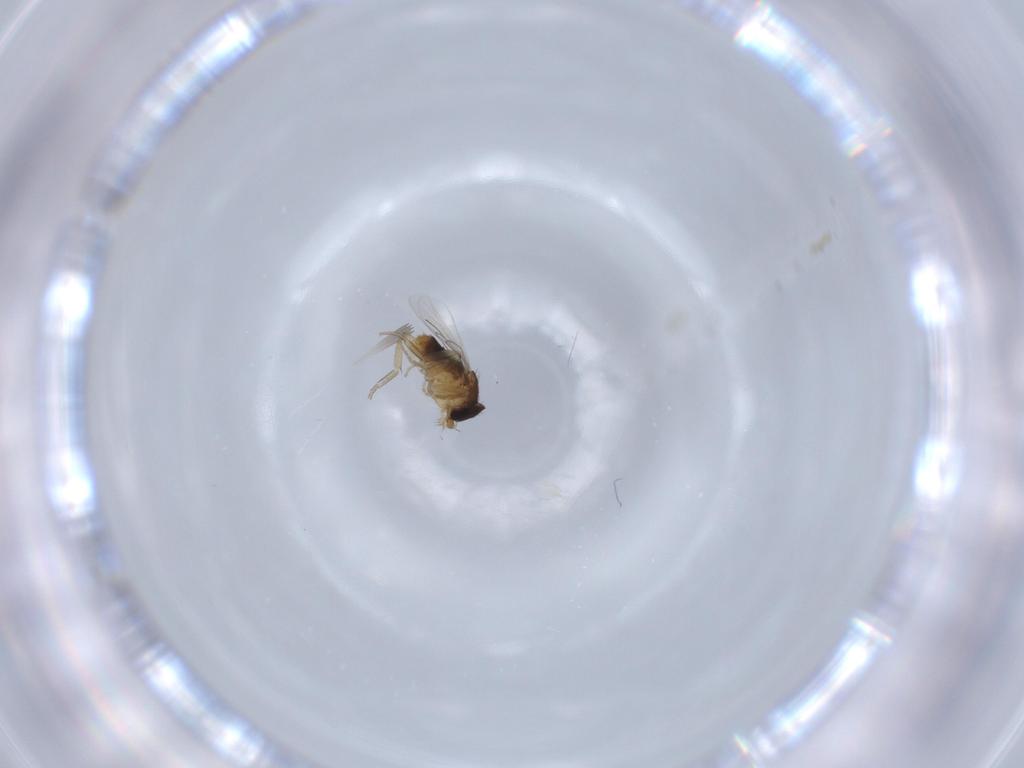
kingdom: Animalia
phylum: Arthropoda
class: Insecta
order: Diptera
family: Phoridae
